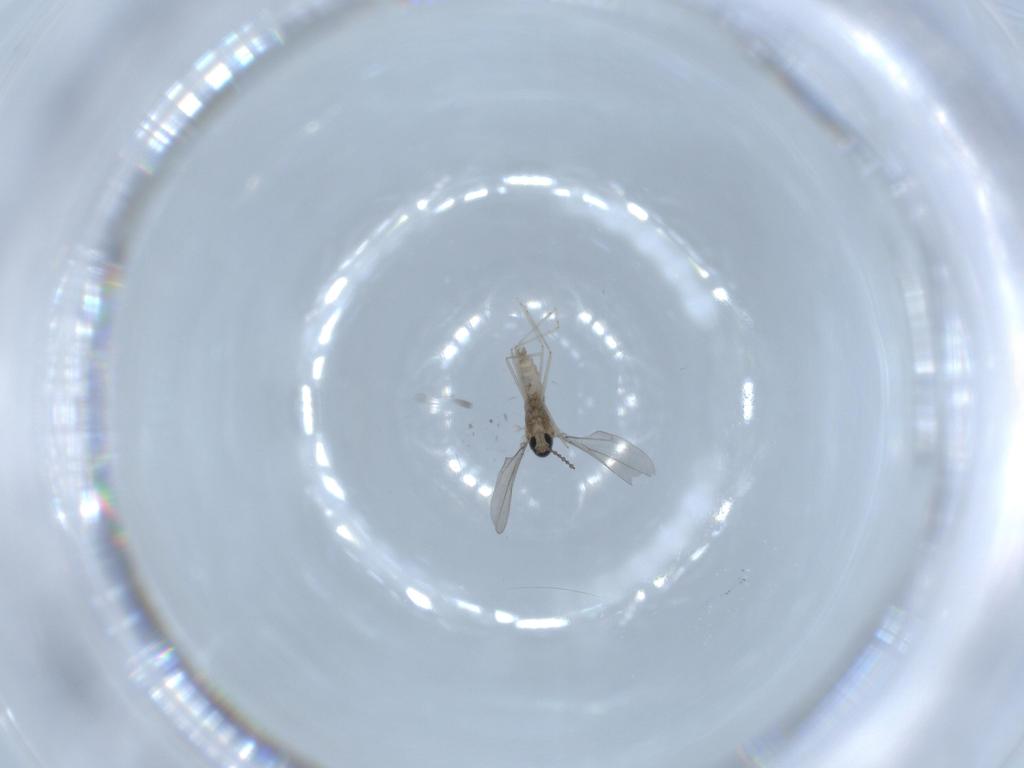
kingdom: Animalia
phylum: Arthropoda
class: Insecta
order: Diptera
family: Cecidomyiidae
